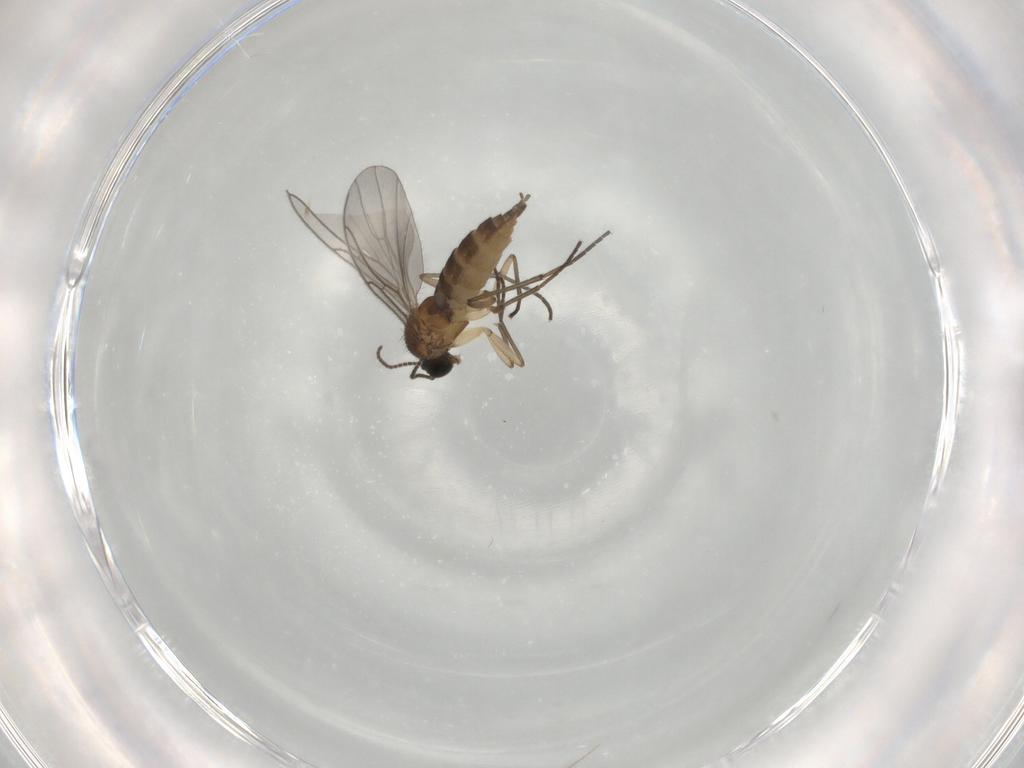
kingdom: Animalia
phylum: Arthropoda
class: Insecta
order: Diptera
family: Sciaridae
